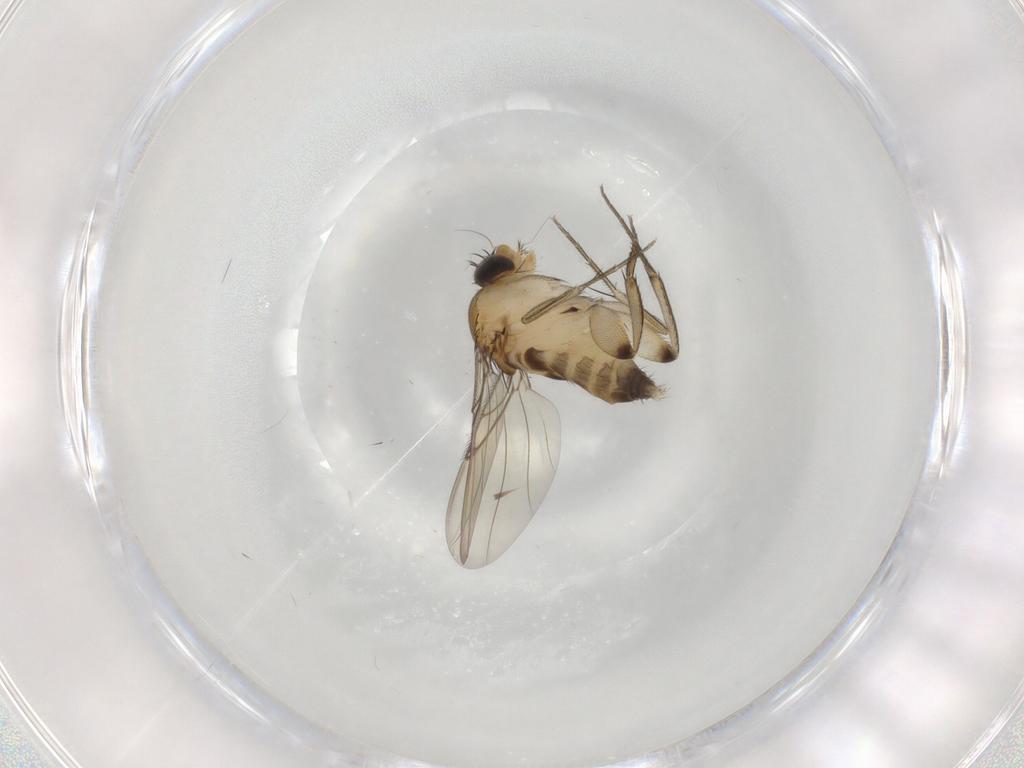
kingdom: Animalia
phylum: Arthropoda
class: Insecta
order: Diptera
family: Phoridae
